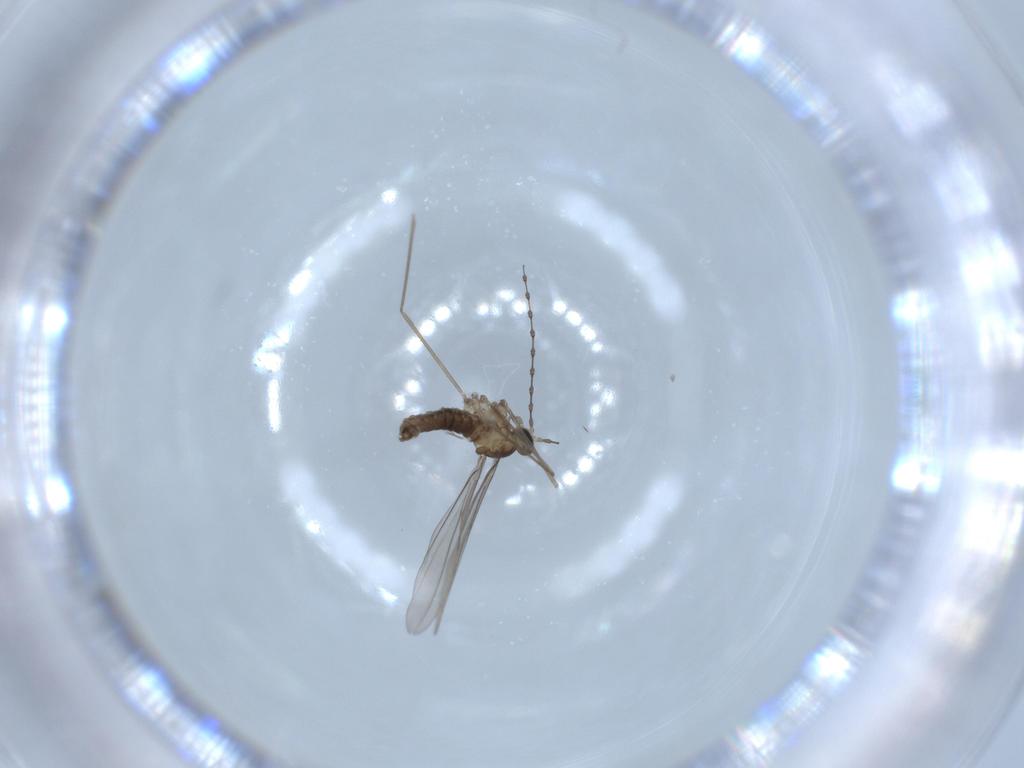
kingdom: Animalia
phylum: Arthropoda
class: Insecta
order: Diptera
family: Cecidomyiidae
